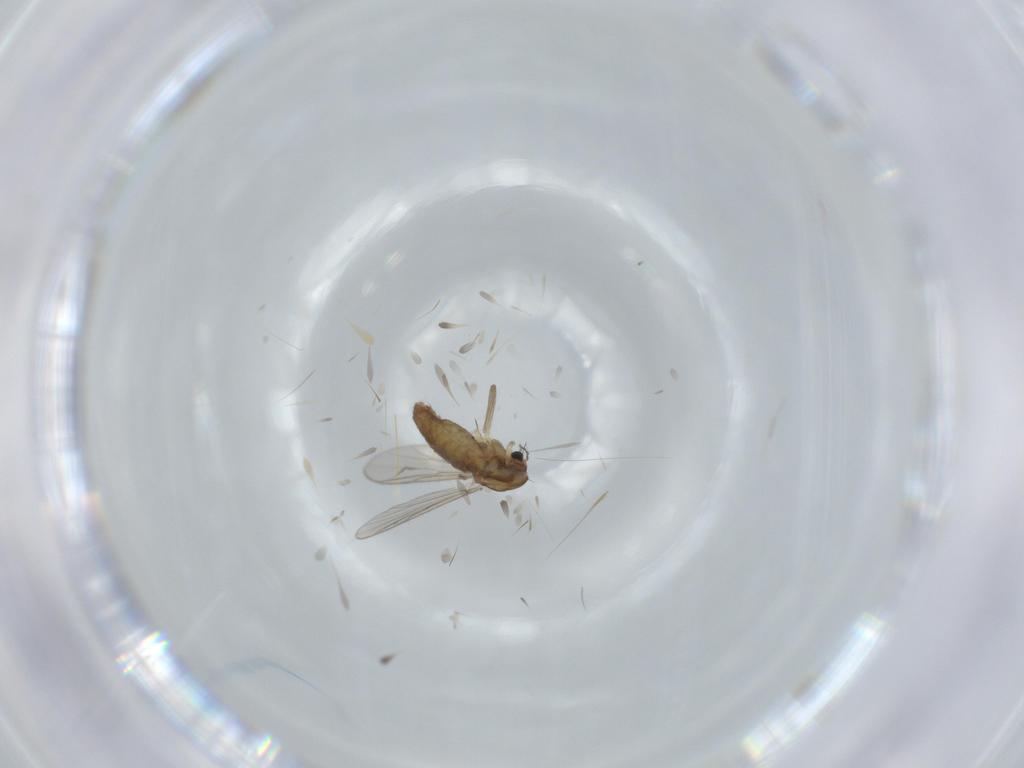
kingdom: Animalia
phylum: Arthropoda
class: Insecta
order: Diptera
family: Chironomidae
